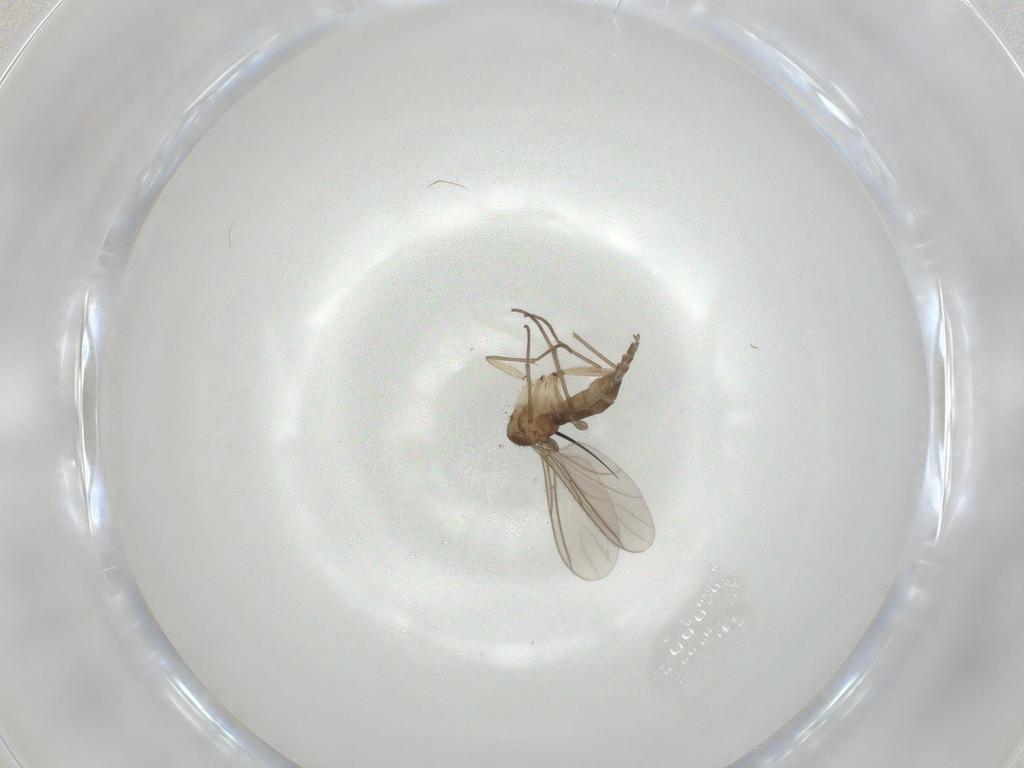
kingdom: Animalia
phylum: Arthropoda
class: Insecta
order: Diptera
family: Sciaridae
